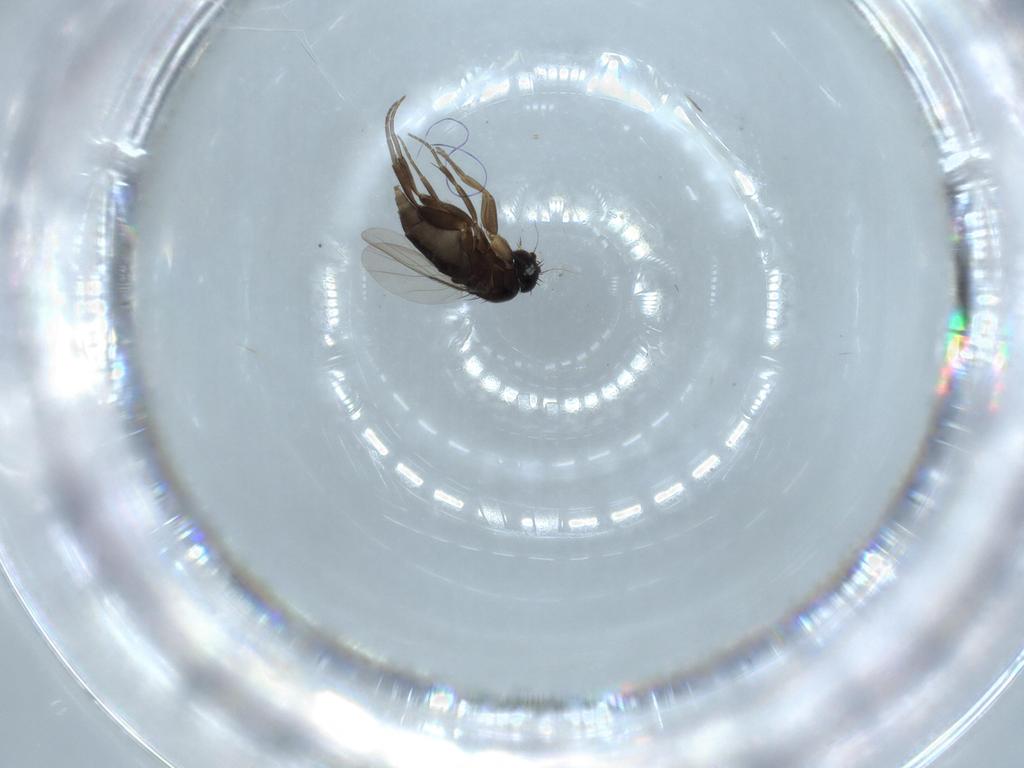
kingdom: Animalia
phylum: Arthropoda
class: Insecta
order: Diptera
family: Phoridae
